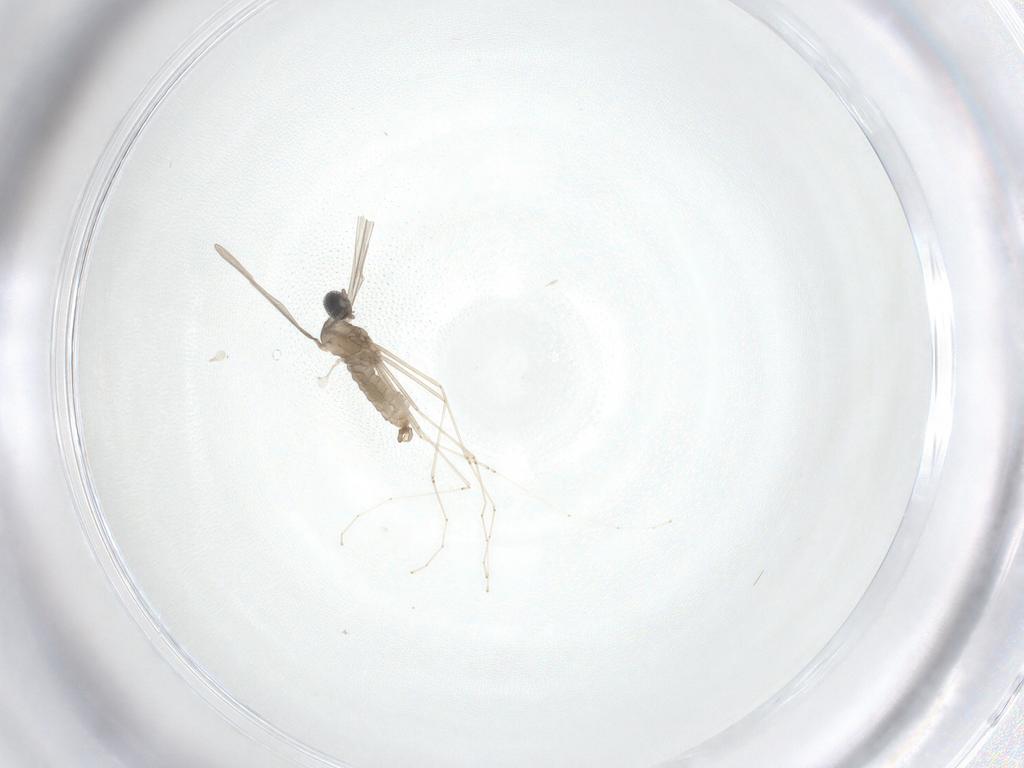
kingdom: Animalia
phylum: Arthropoda
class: Insecta
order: Diptera
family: Cecidomyiidae
